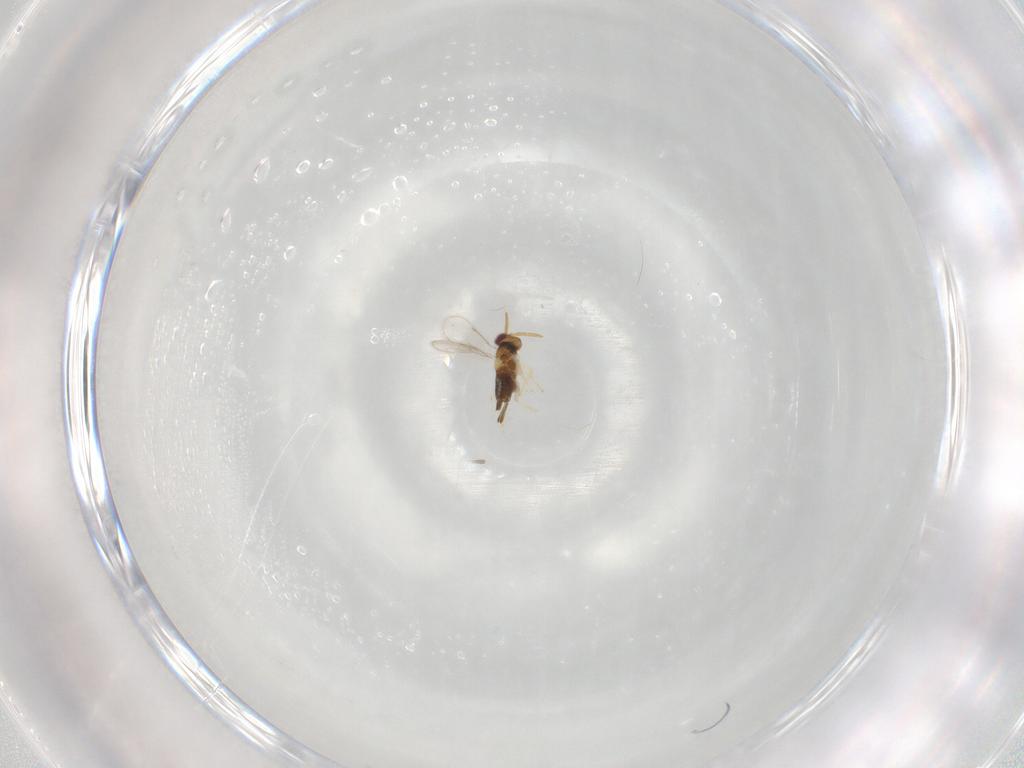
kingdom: Animalia
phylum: Arthropoda
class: Insecta
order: Hymenoptera
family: Aphelinidae
